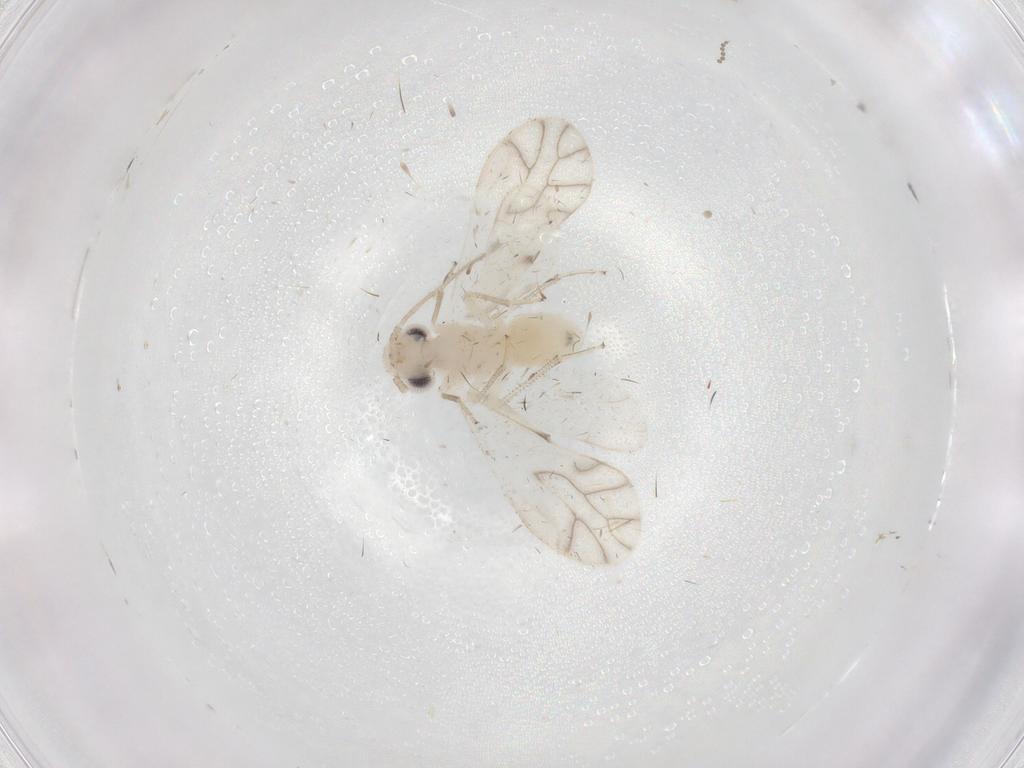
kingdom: Animalia
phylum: Arthropoda
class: Insecta
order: Psocodea
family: Caeciliusidae
